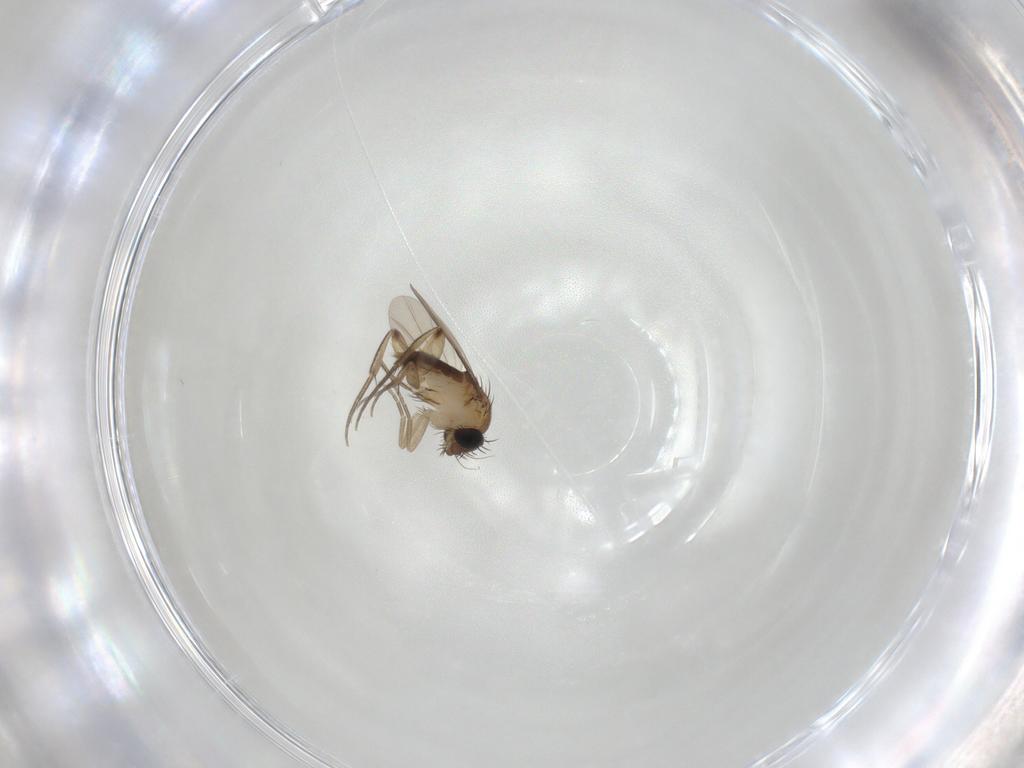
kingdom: Animalia
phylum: Arthropoda
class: Insecta
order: Diptera
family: Phoridae
